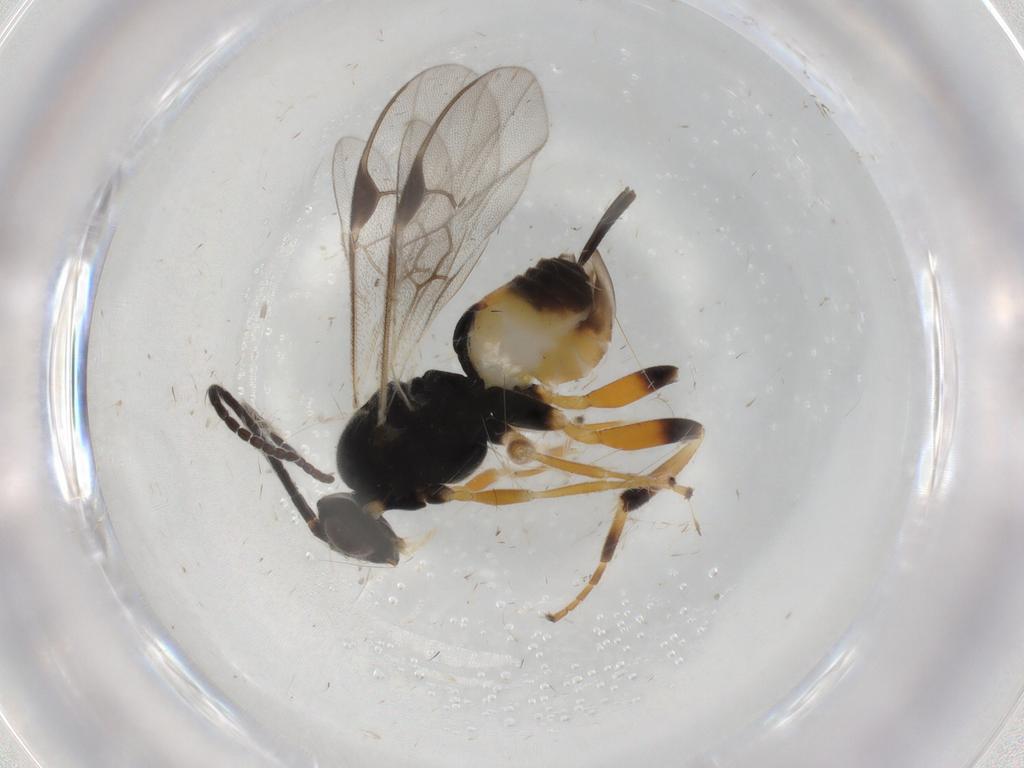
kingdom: Animalia
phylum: Arthropoda
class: Insecta
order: Hymenoptera
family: Braconidae
